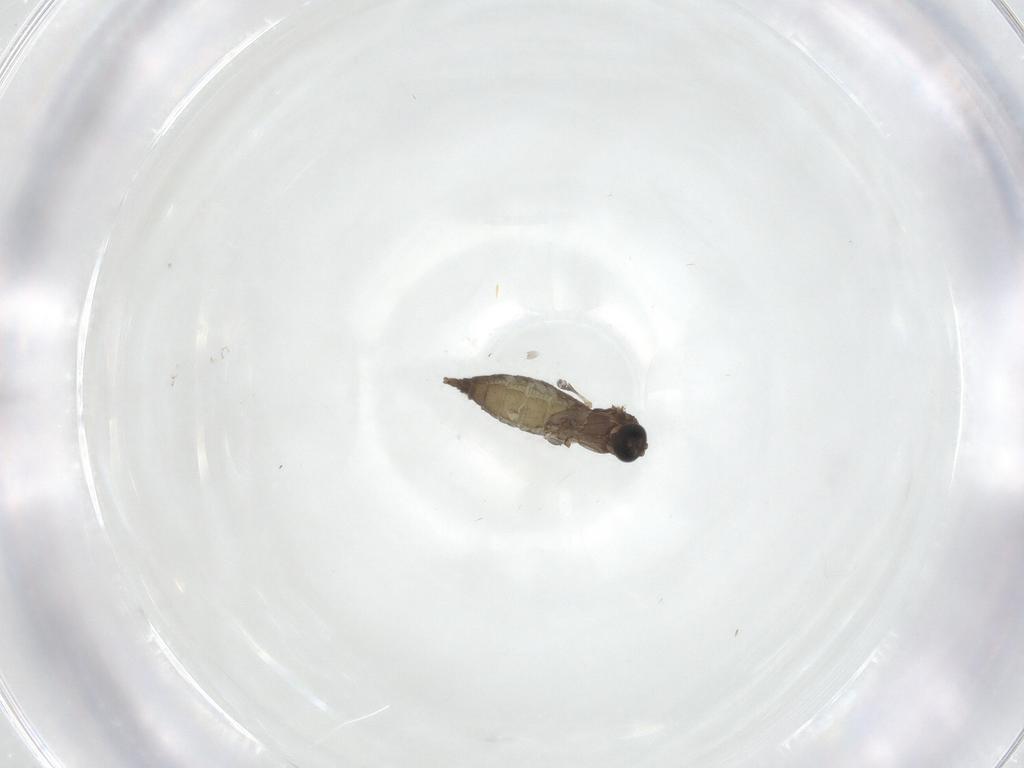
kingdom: Animalia
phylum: Arthropoda
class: Insecta
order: Diptera
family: Sciaridae
